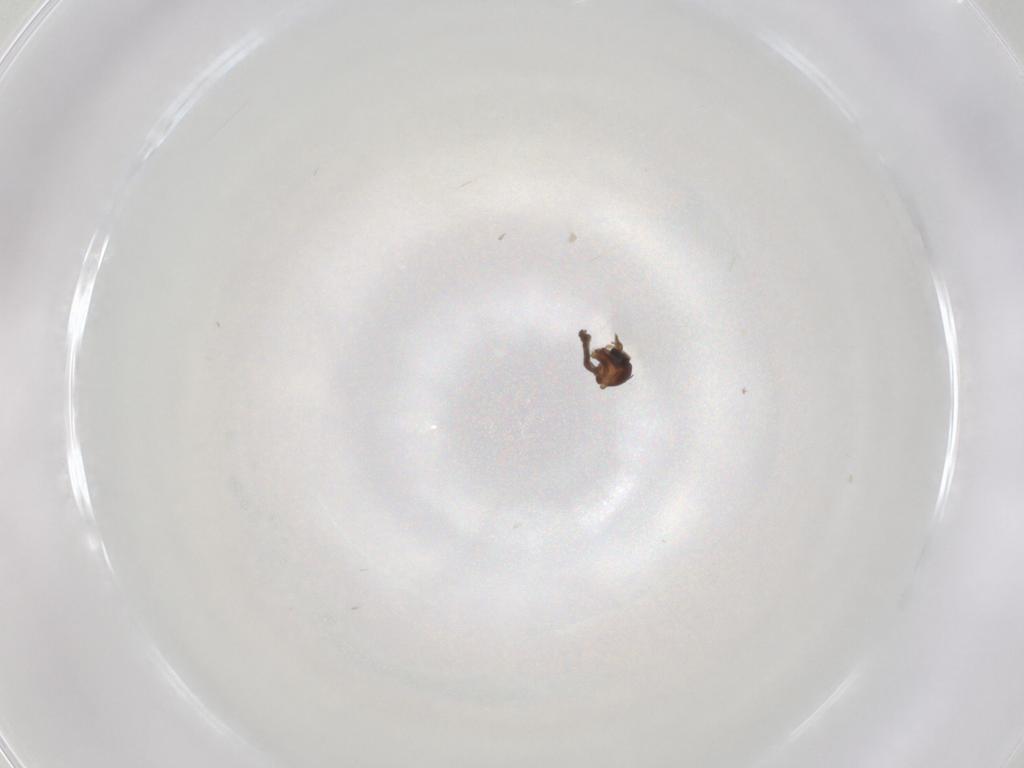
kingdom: Animalia
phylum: Arthropoda
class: Insecta
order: Diptera
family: Ceratopogonidae
